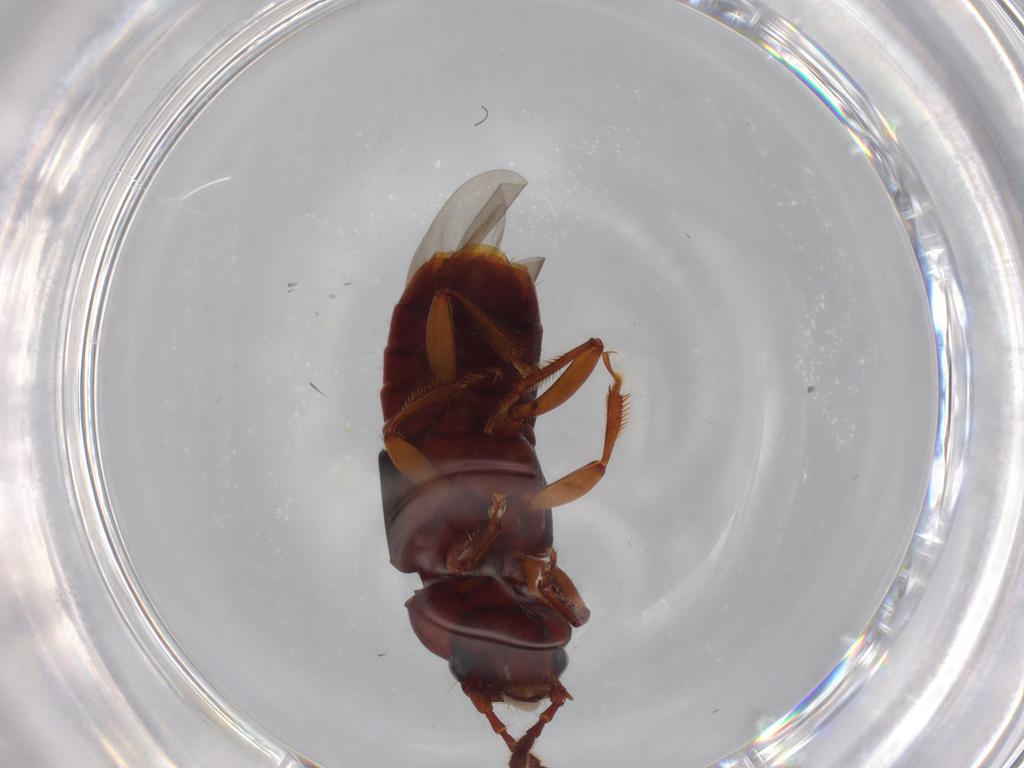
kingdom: Animalia
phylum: Arthropoda
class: Insecta
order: Coleoptera
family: Staphylinidae
